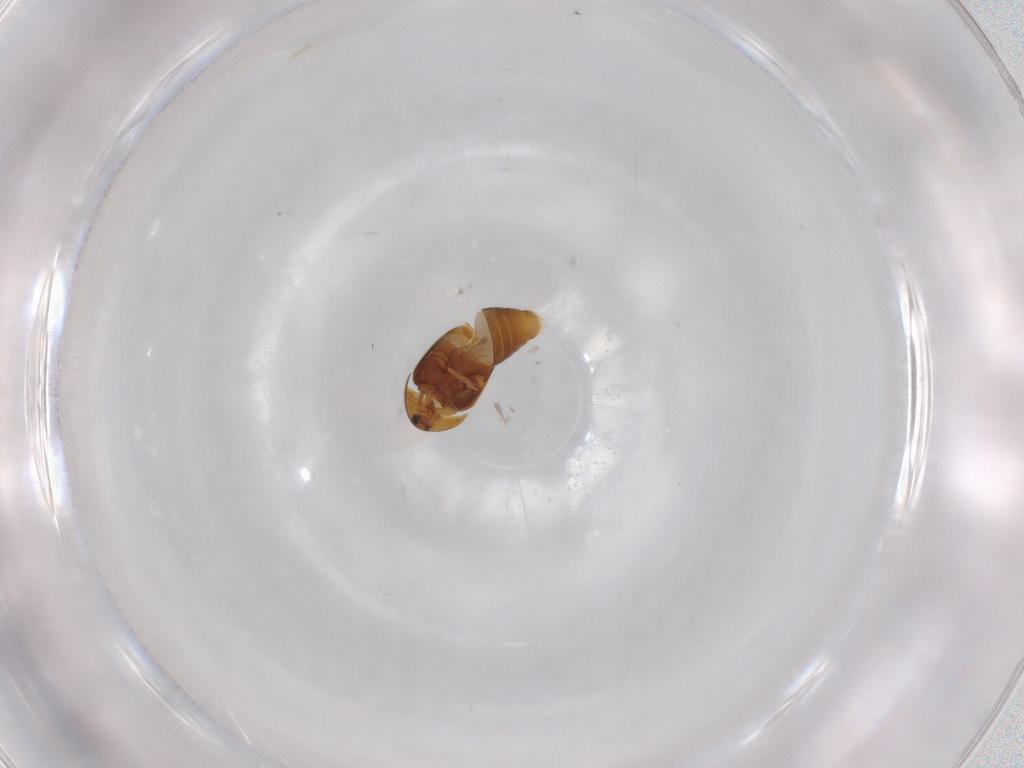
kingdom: Animalia
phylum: Arthropoda
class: Insecta
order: Coleoptera
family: Corylophidae
